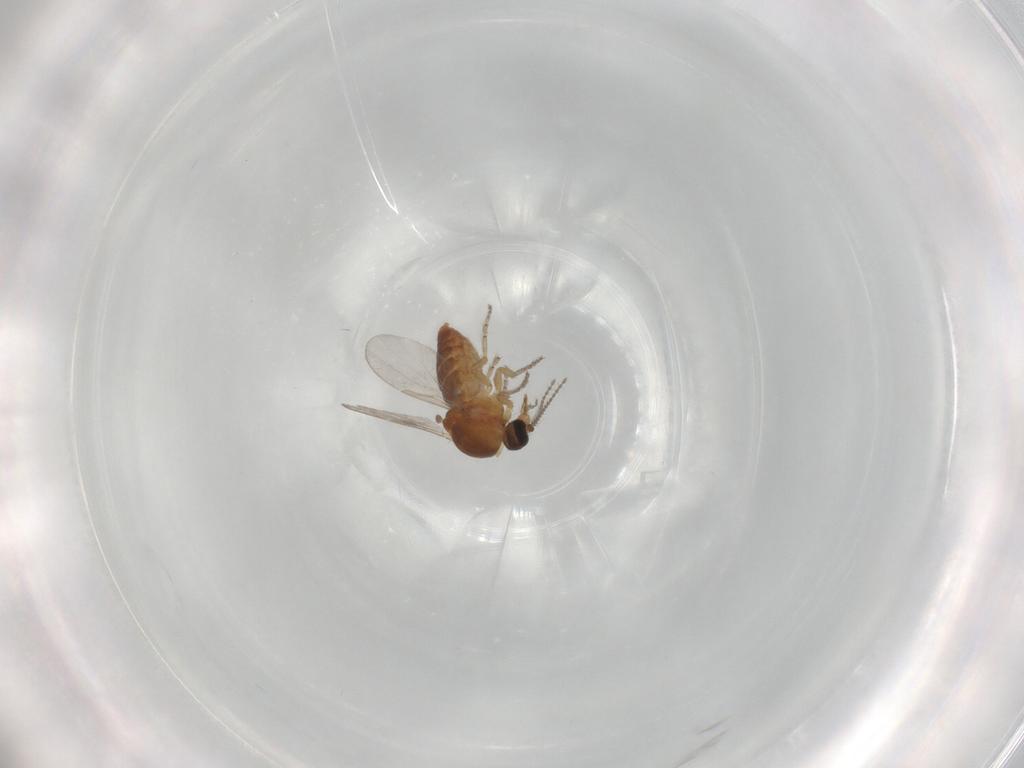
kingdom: Animalia
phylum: Arthropoda
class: Insecta
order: Diptera
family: Ceratopogonidae
